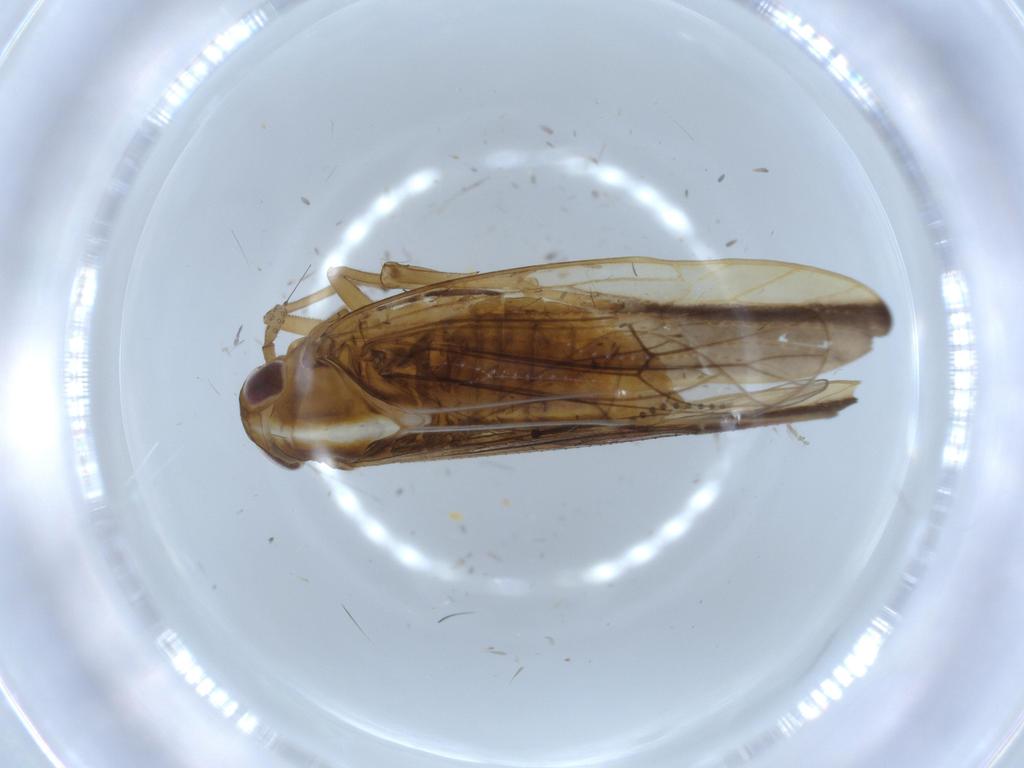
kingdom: Animalia
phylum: Arthropoda
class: Insecta
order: Hemiptera
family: Delphacidae
